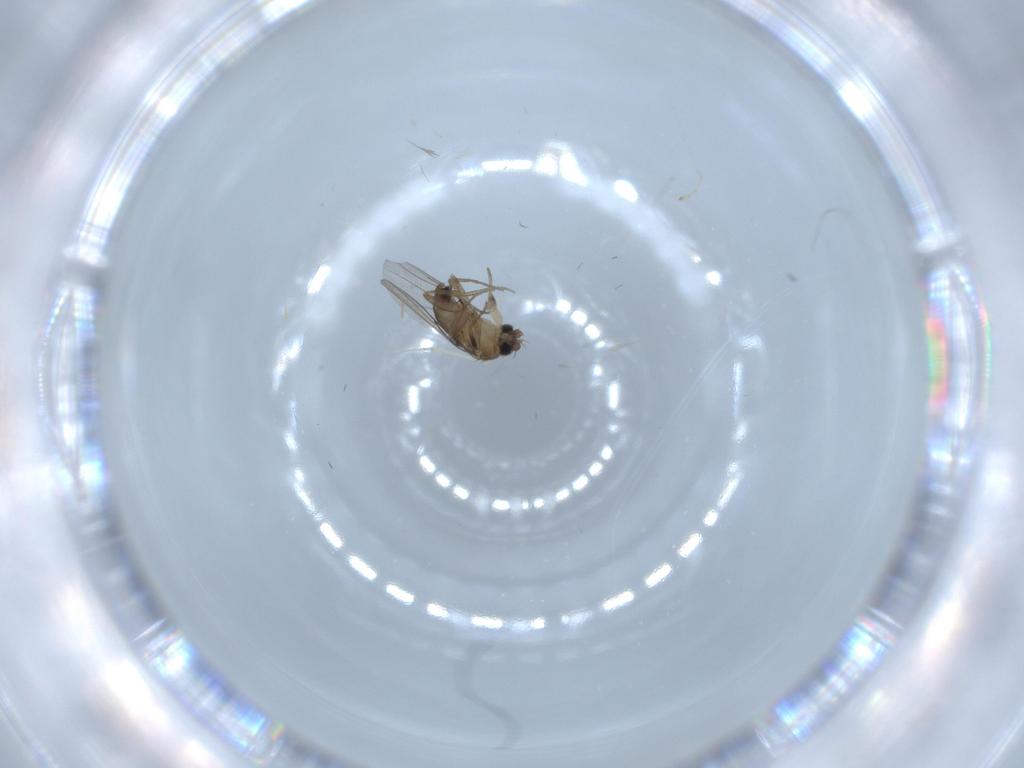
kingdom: Animalia
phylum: Arthropoda
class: Insecta
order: Diptera
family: Phoridae
